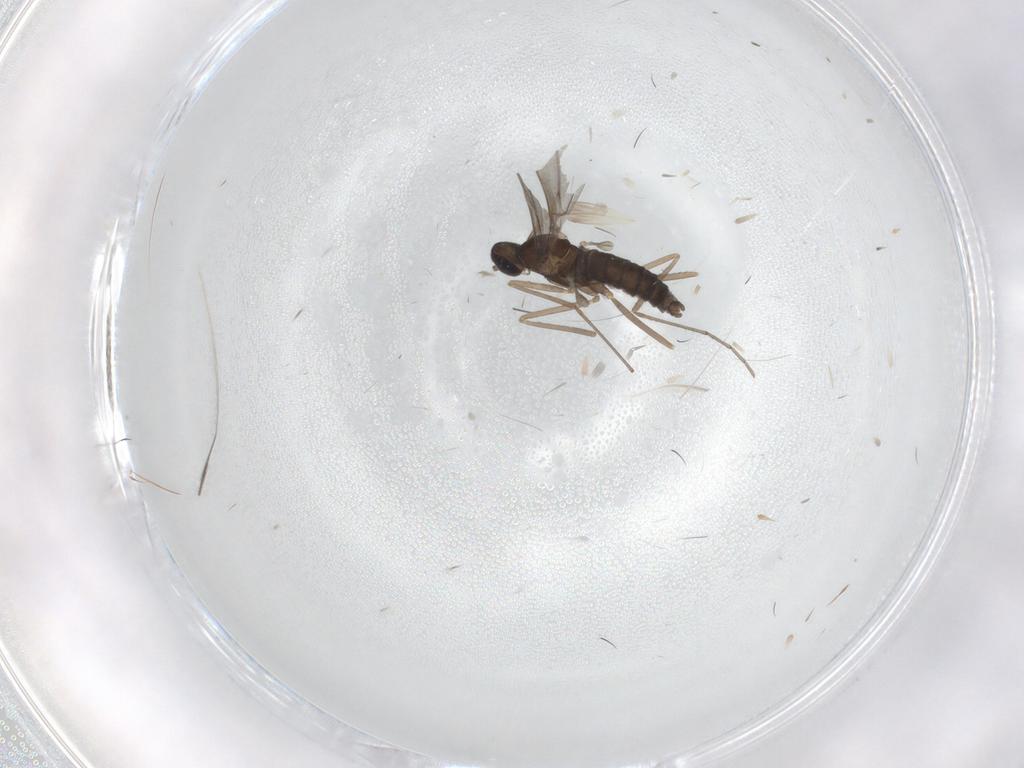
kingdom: Animalia
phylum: Arthropoda
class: Insecta
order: Diptera
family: Cecidomyiidae
